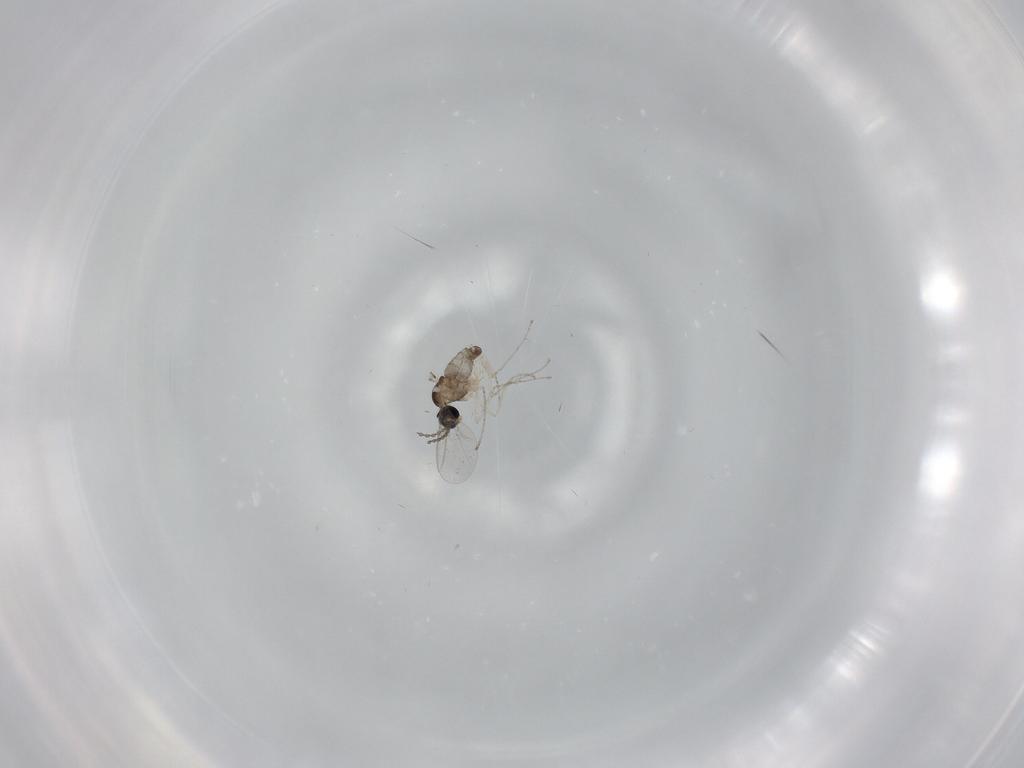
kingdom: Animalia
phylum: Arthropoda
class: Insecta
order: Diptera
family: Cecidomyiidae
